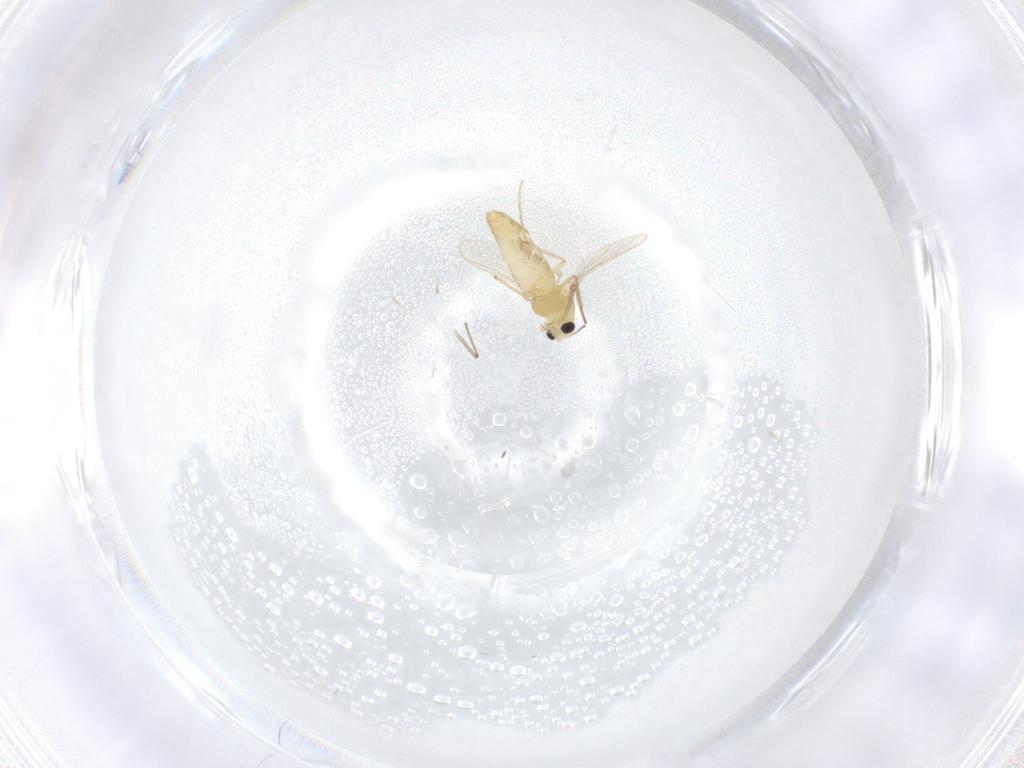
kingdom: Animalia
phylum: Arthropoda
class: Insecta
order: Diptera
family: Chironomidae
